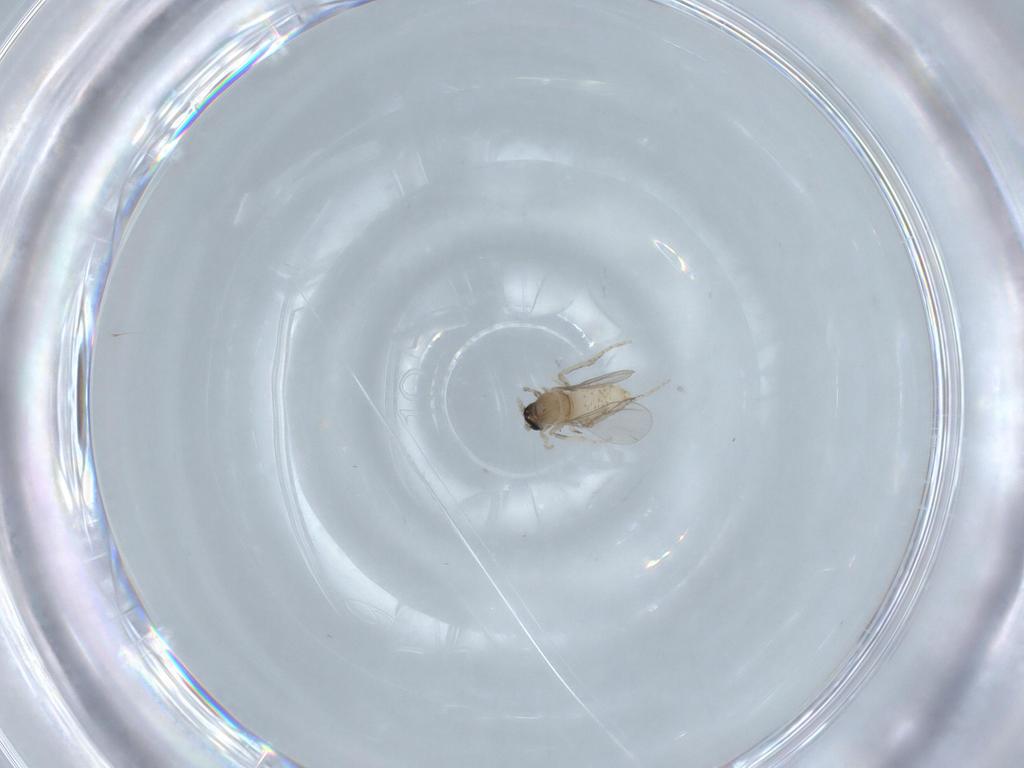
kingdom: Animalia
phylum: Arthropoda
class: Insecta
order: Diptera
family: Cecidomyiidae
